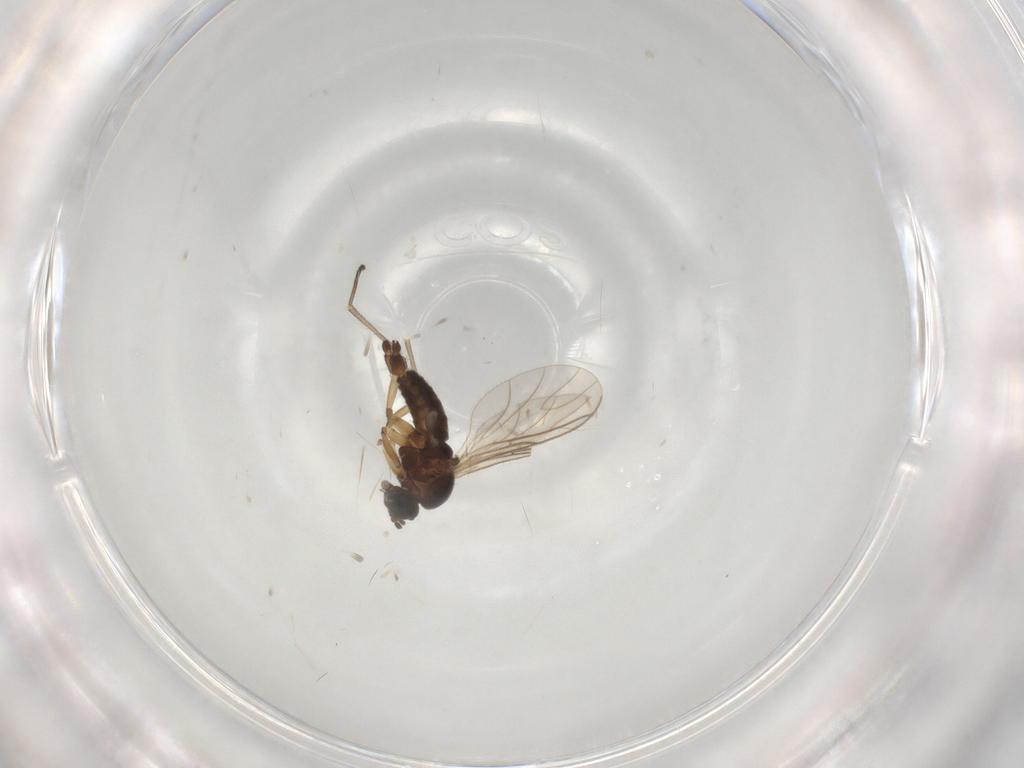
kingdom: Animalia
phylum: Arthropoda
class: Insecta
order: Diptera
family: Sciaridae
